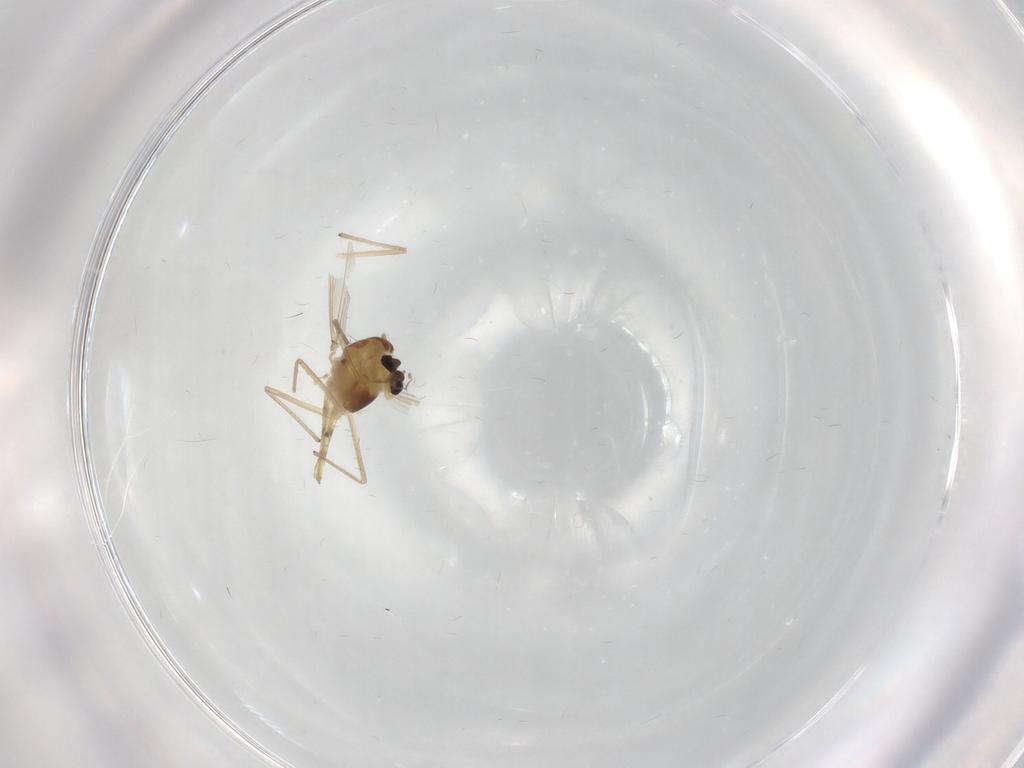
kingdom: Animalia
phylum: Arthropoda
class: Insecta
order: Diptera
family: Chironomidae
